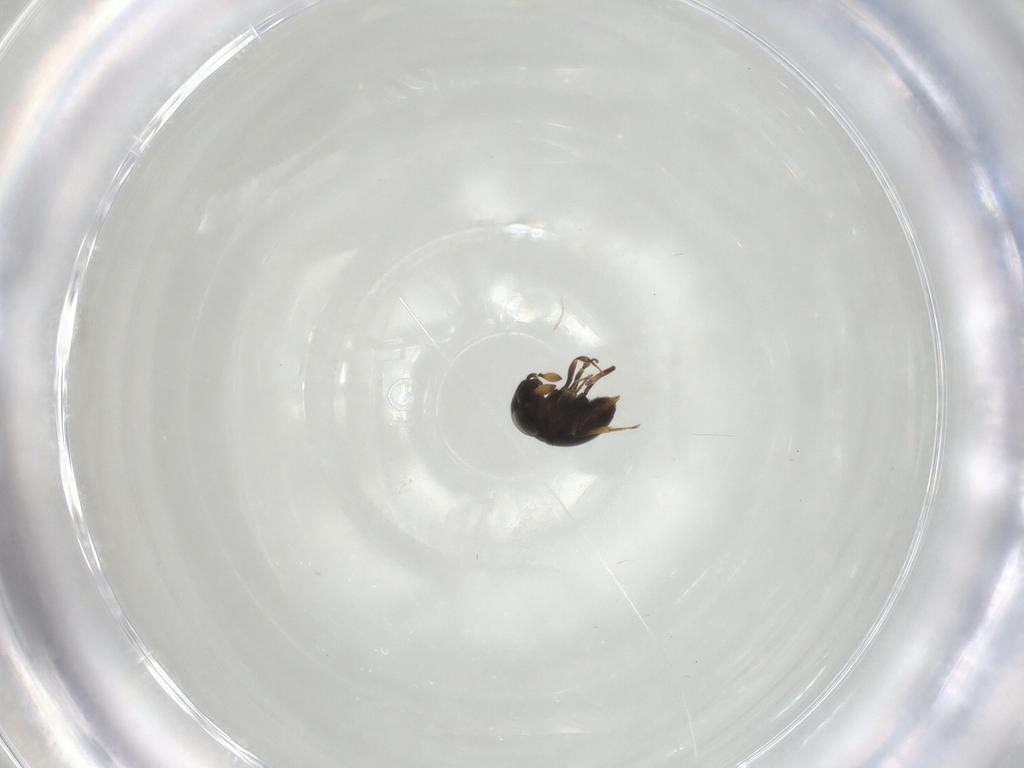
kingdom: Animalia
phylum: Arthropoda
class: Insecta
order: Hymenoptera
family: Scelionidae
